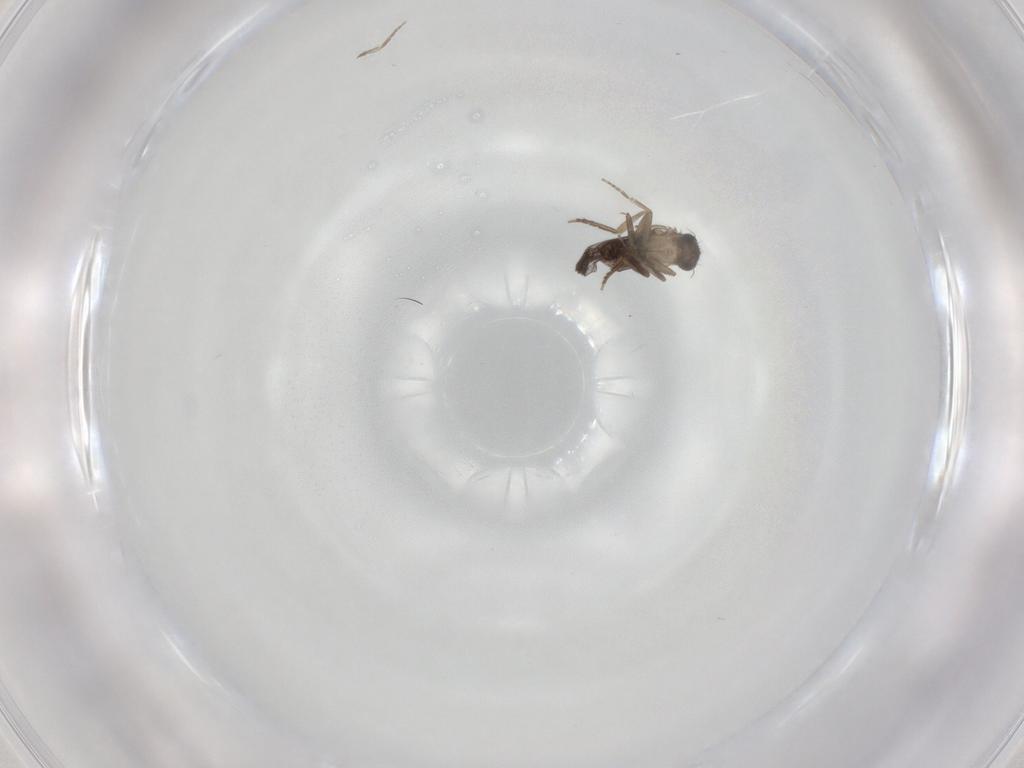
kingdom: Animalia
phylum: Arthropoda
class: Insecta
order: Diptera
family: Phoridae
